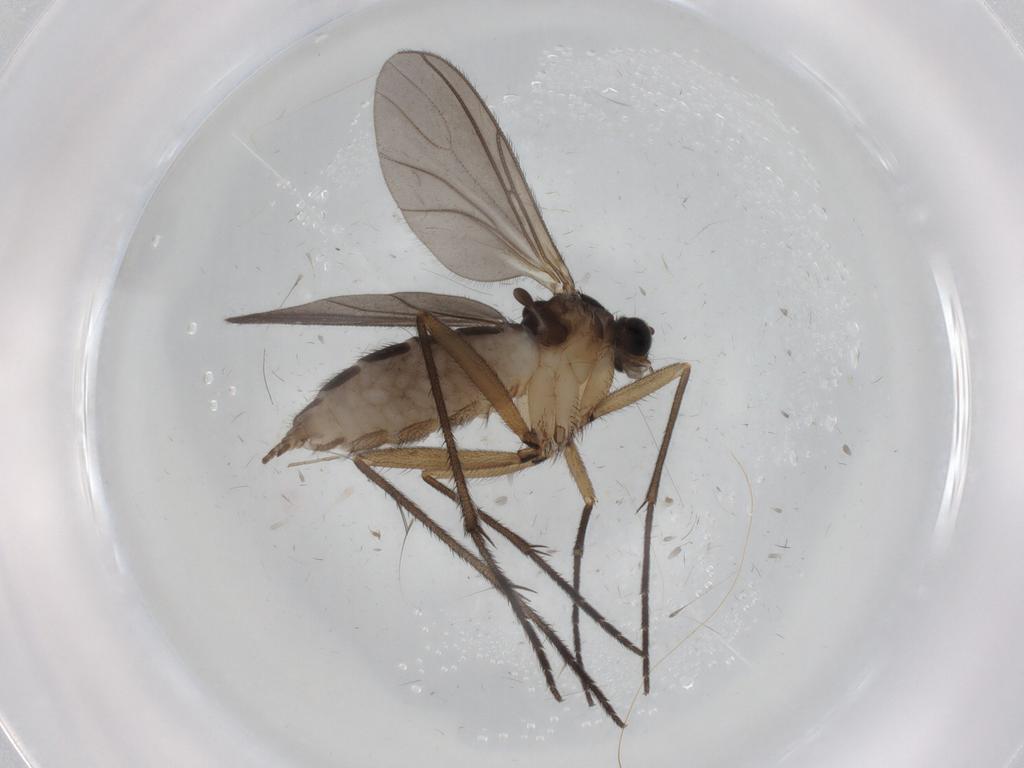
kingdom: Animalia
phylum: Arthropoda
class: Insecta
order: Diptera
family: Sciaridae
